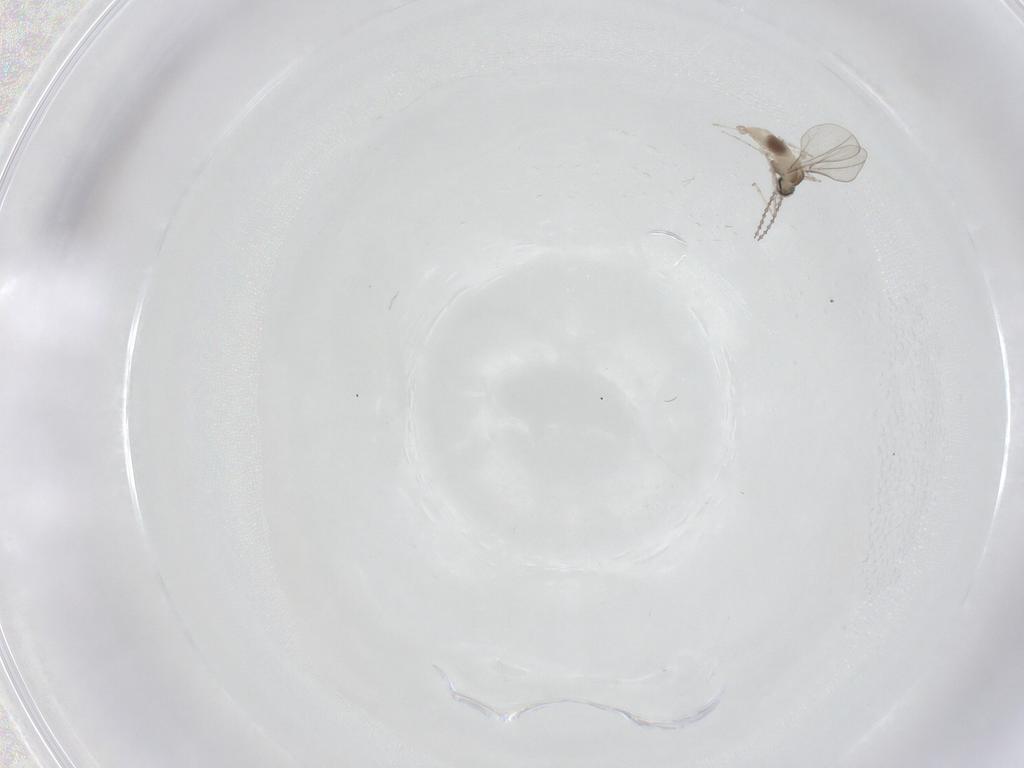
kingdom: Animalia
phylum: Arthropoda
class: Insecta
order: Diptera
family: Cecidomyiidae
